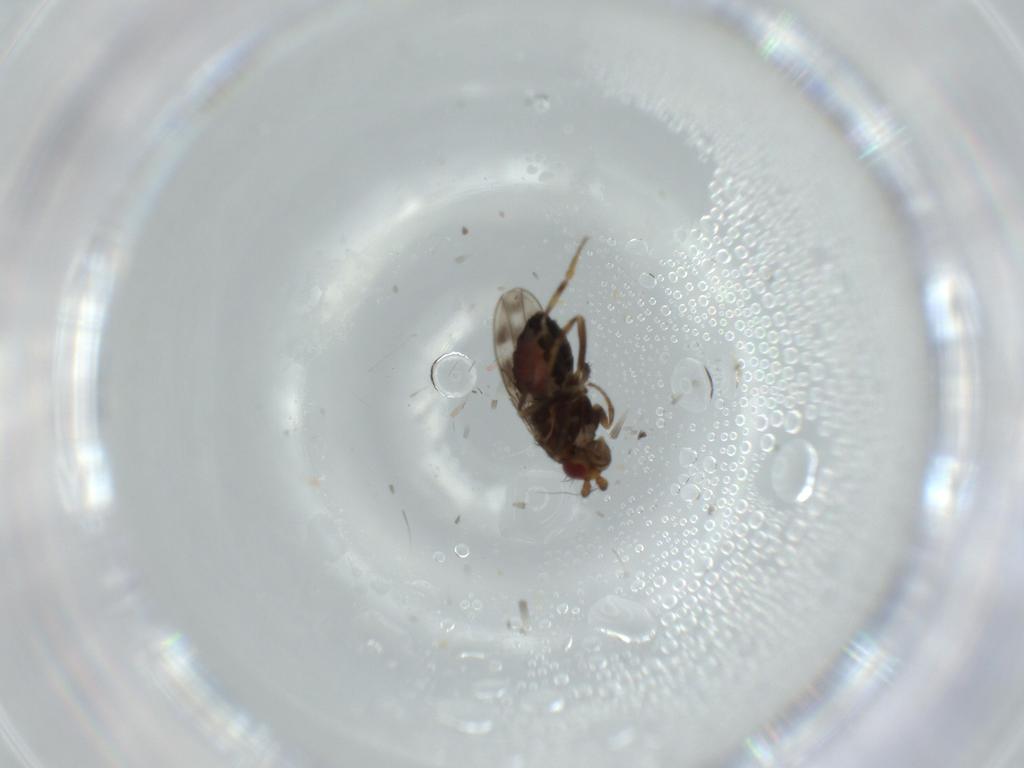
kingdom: Animalia
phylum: Arthropoda
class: Insecta
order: Diptera
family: Sphaeroceridae
